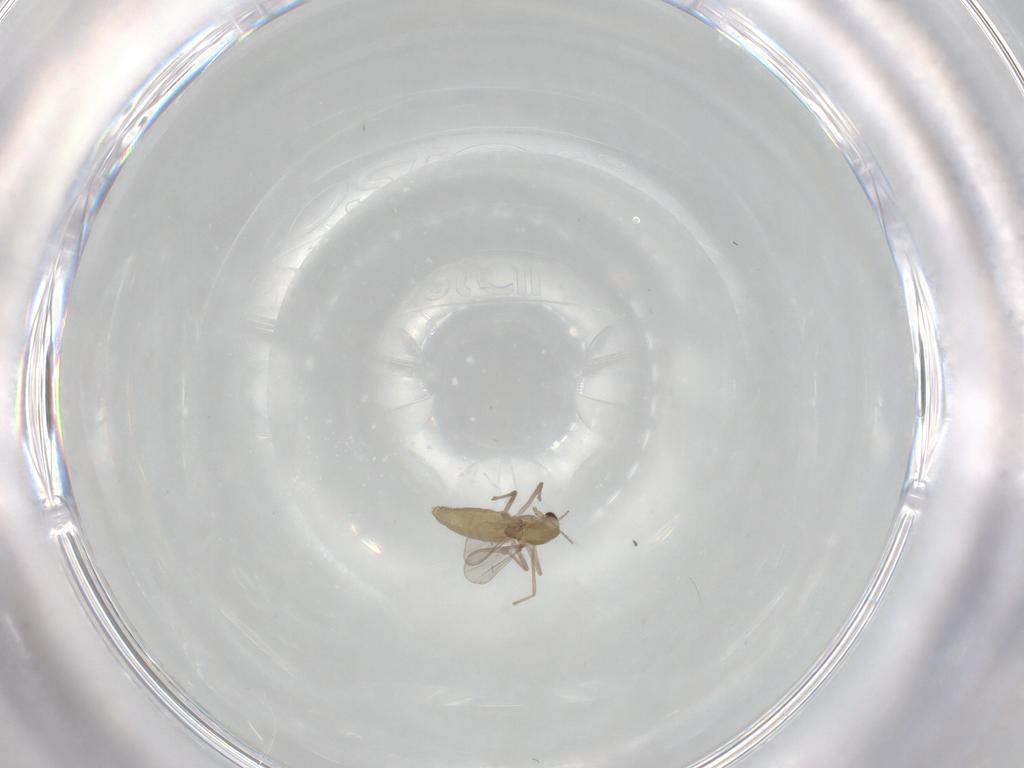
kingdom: Animalia
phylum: Arthropoda
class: Insecta
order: Diptera
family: Chironomidae
